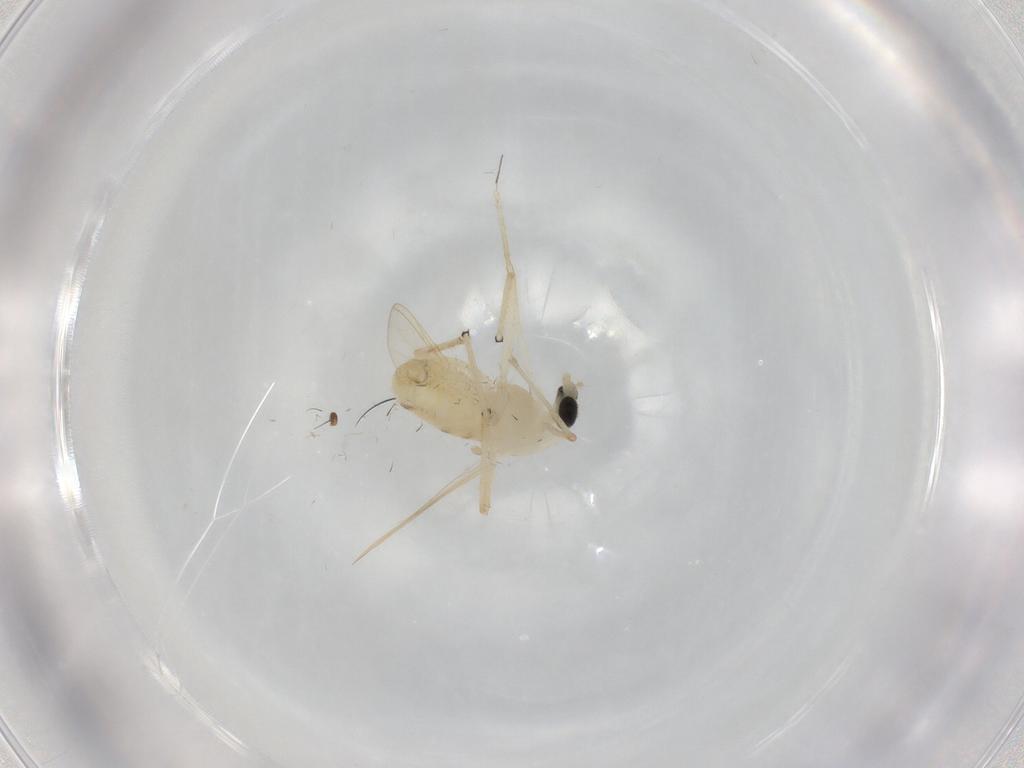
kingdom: Animalia
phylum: Arthropoda
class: Insecta
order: Diptera
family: Chironomidae
